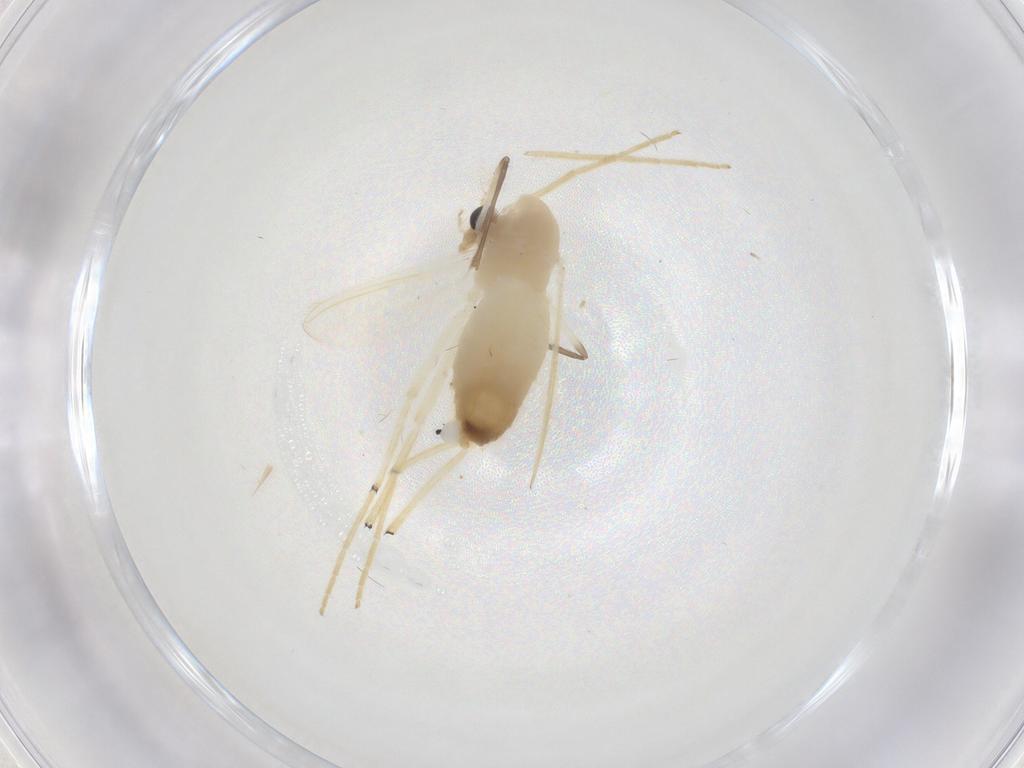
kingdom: Animalia
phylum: Arthropoda
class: Insecta
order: Diptera
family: Chironomidae
